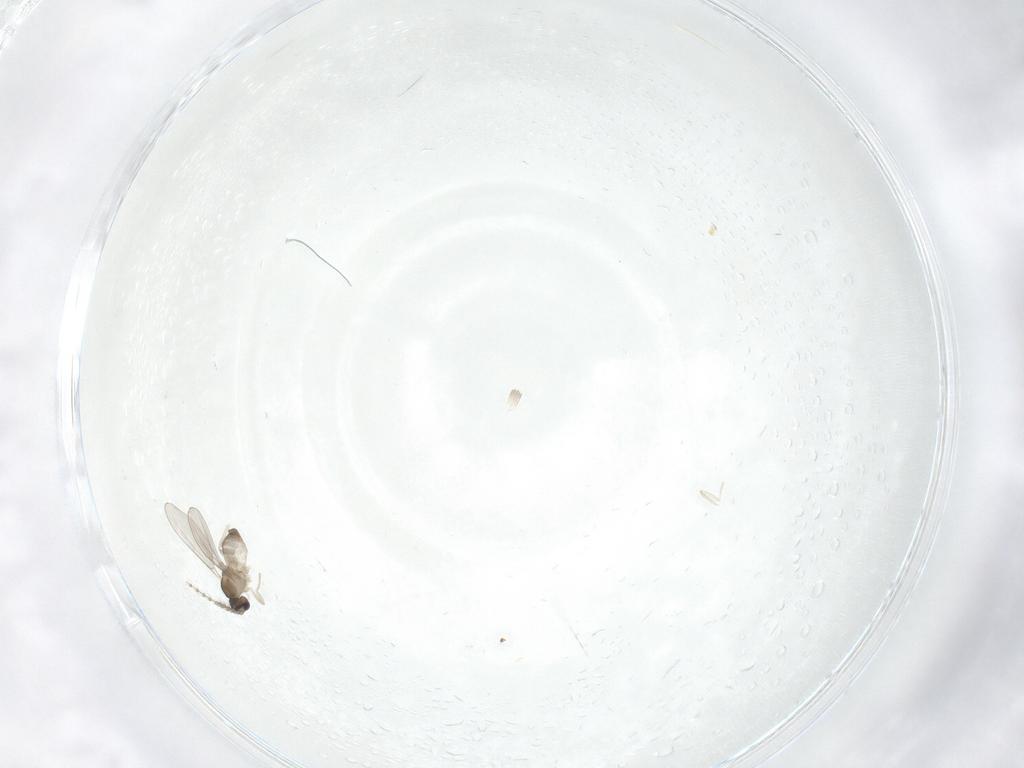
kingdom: Animalia
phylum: Arthropoda
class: Insecta
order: Diptera
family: Cecidomyiidae
